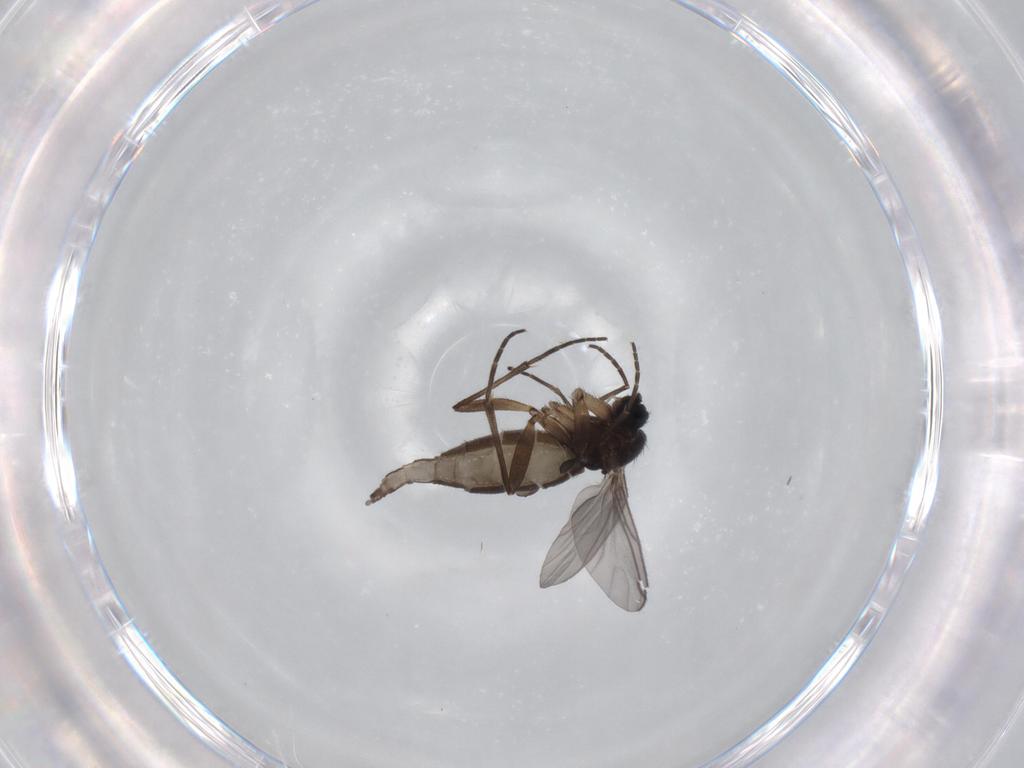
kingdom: Animalia
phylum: Arthropoda
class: Insecta
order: Diptera
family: Sciaridae
